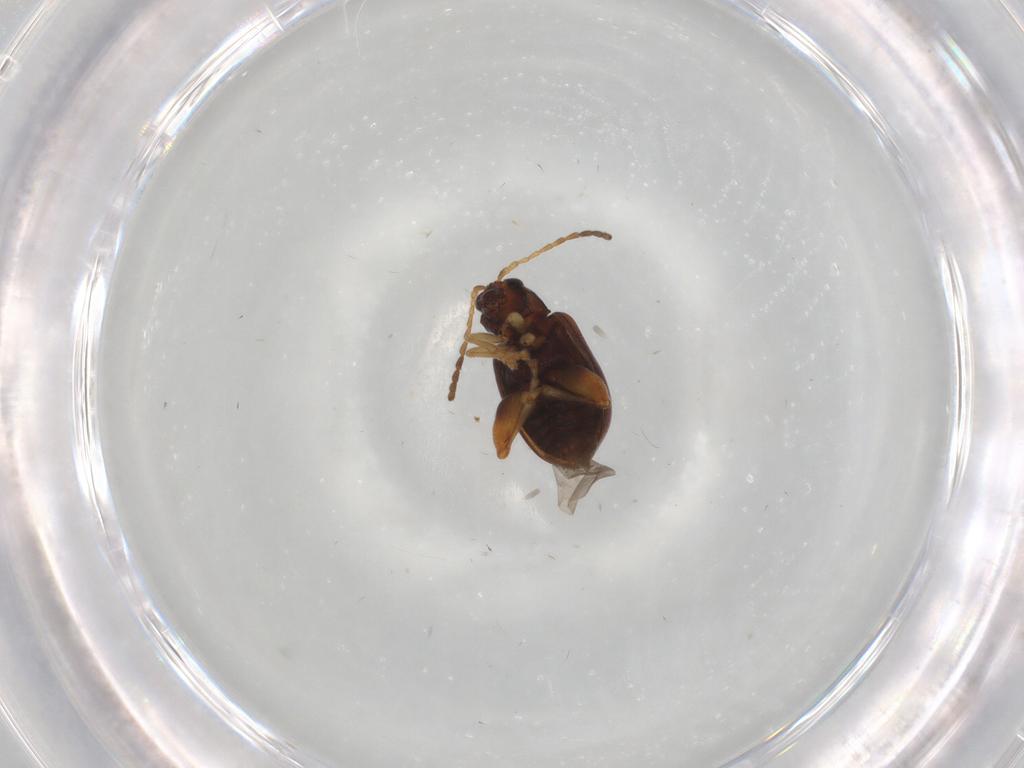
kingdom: Animalia
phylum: Arthropoda
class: Insecta
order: Coleoptera
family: Chrysomelidae
